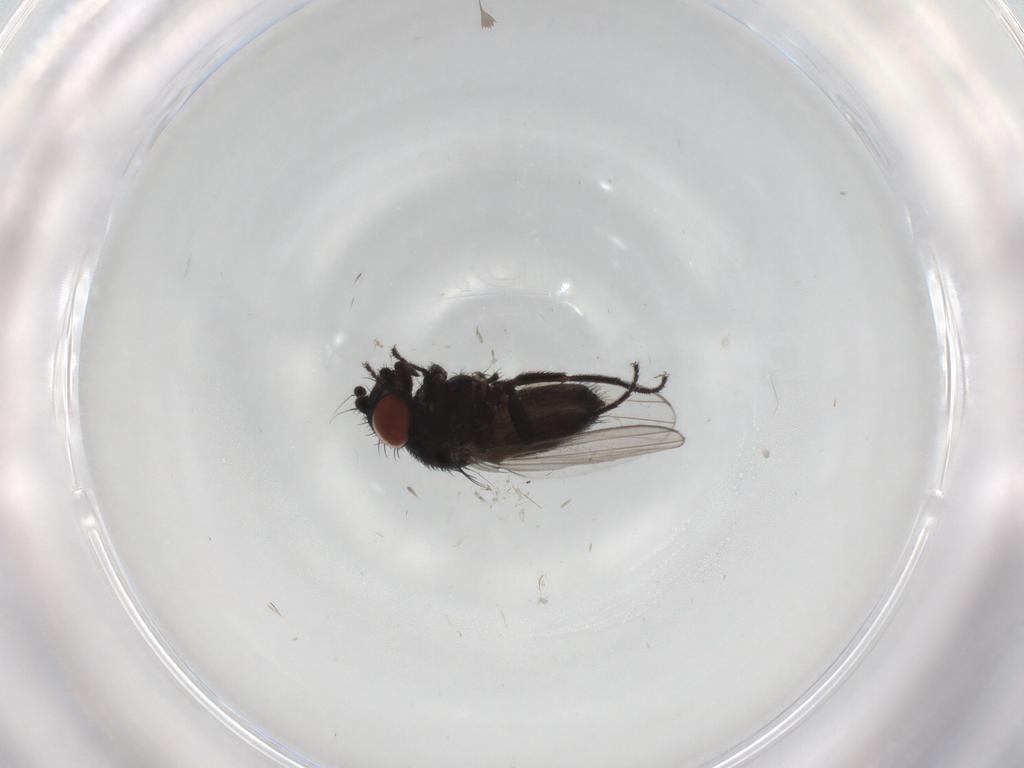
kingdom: Animalia
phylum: Arthropoda
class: Insecta
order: Diptera
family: Milichiidae
